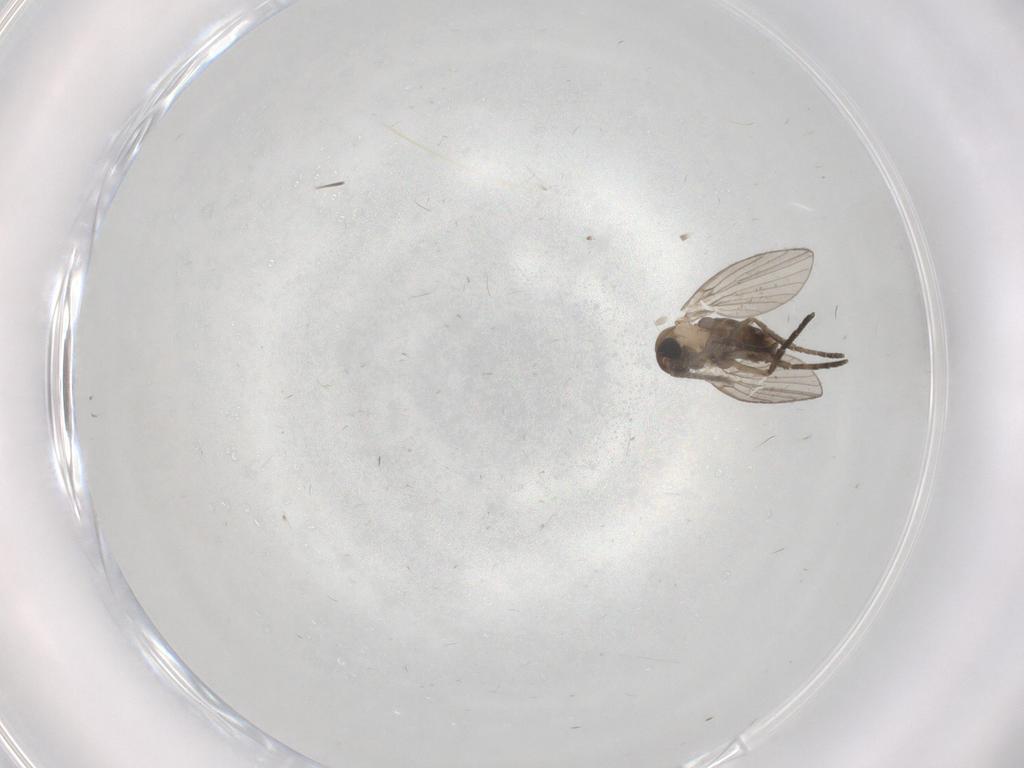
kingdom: Animalia
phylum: Arthropoda
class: Insecta
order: Diptera
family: Psychodidae
